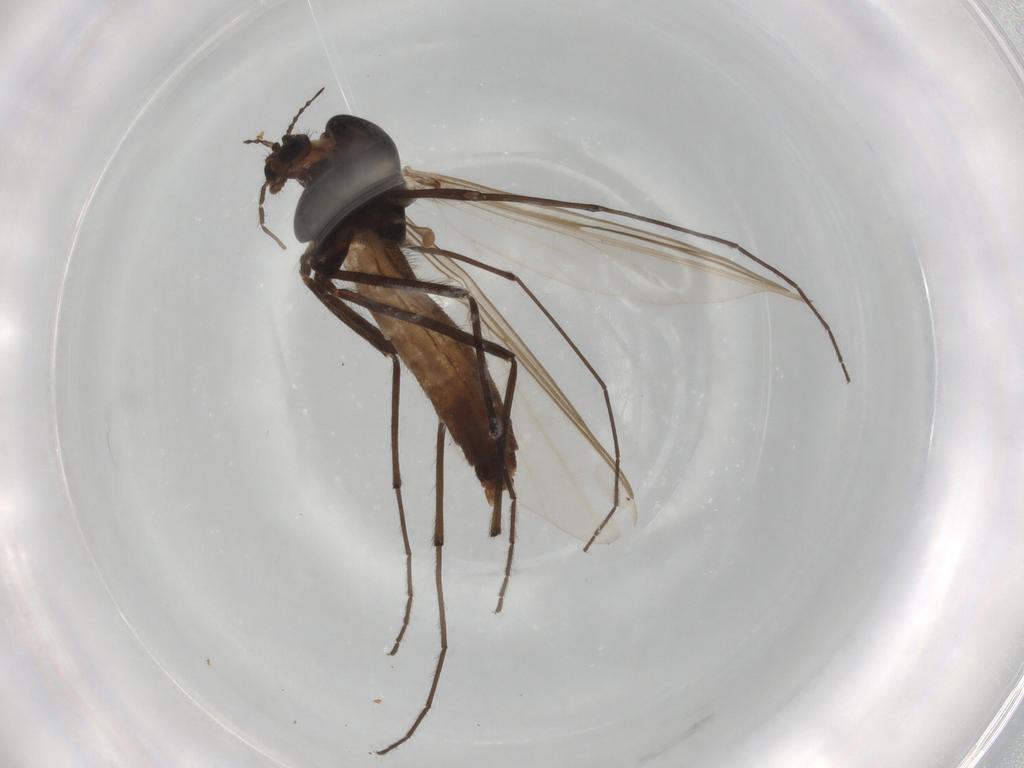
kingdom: Animalia
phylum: Arthropoda
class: Insecta
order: Diptera
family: Chironomidae
